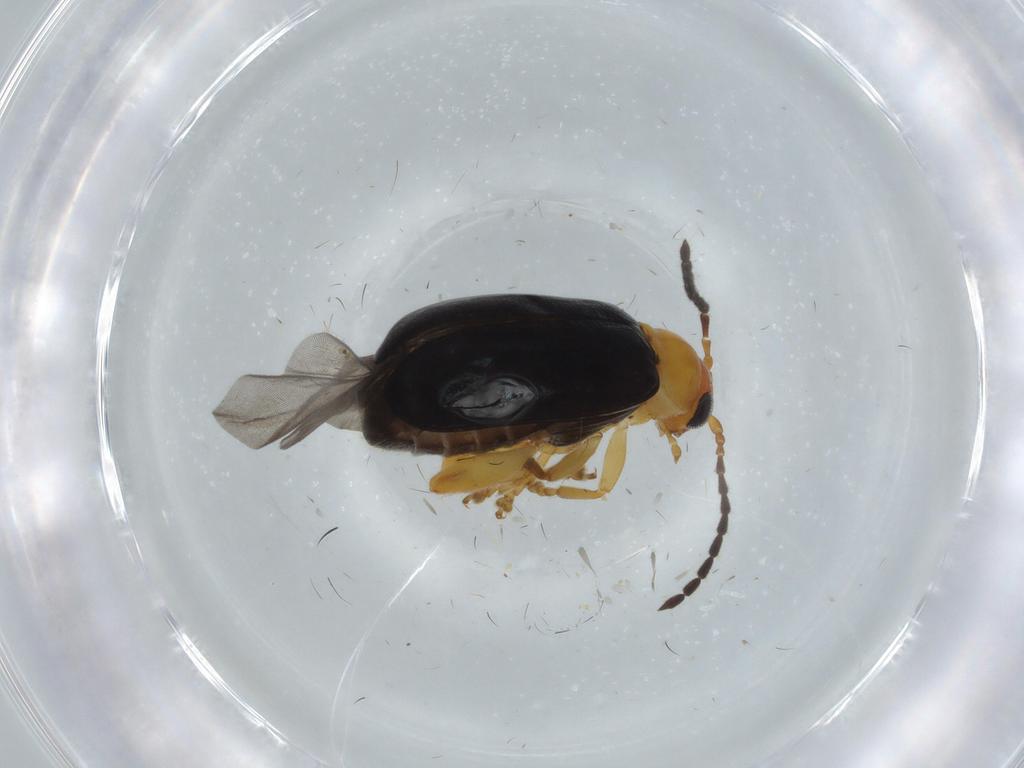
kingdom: Animalia
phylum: Arthropoda
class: Insecta
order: Coleoptera
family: Chrysomelidae
